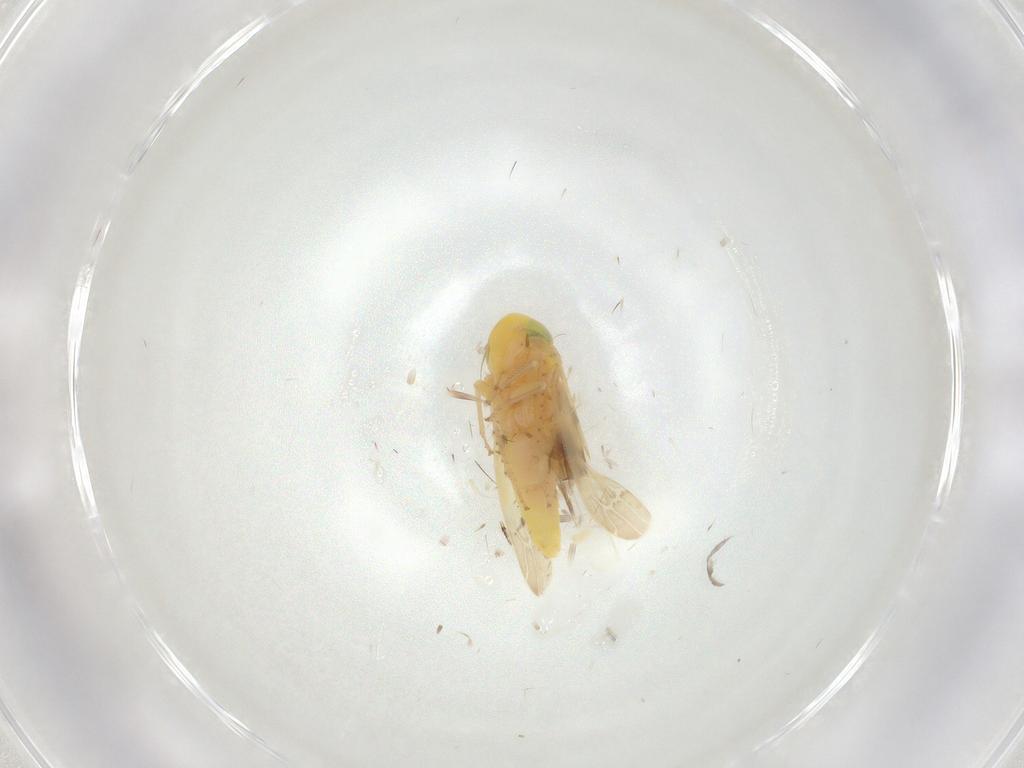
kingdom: Animalia
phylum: Arthropoda
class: Insecta
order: Hemiptera
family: Cicadellidae
